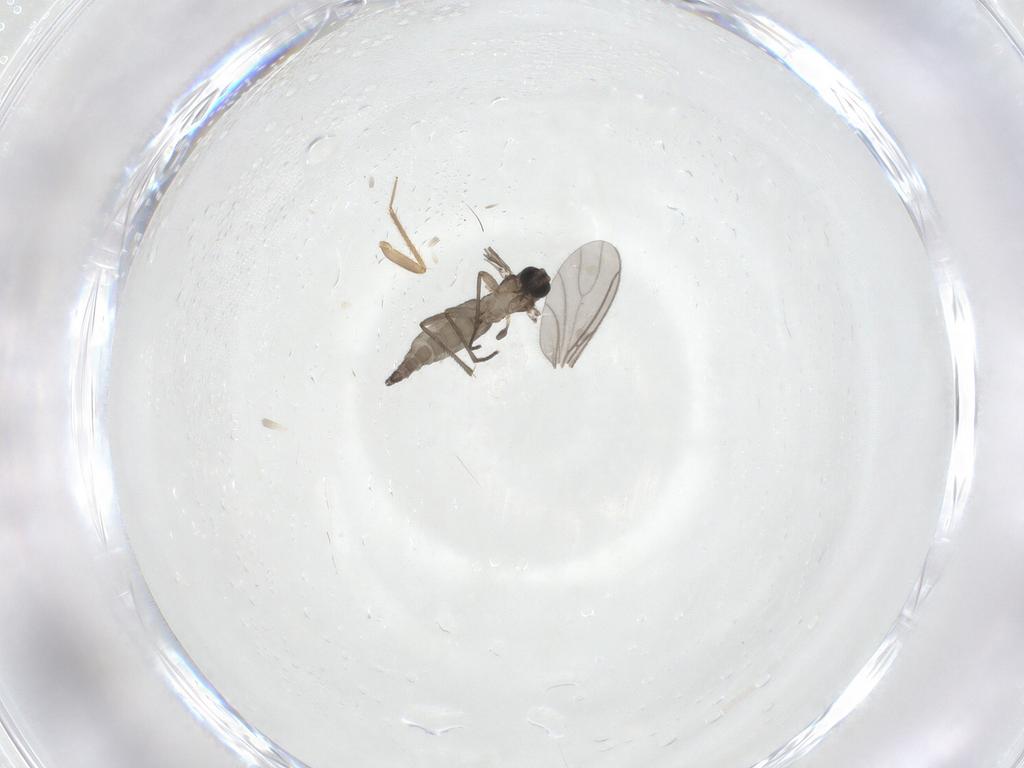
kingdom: Animalia
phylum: Arthropoda
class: Insecta
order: Diptera
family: Sciaridae
